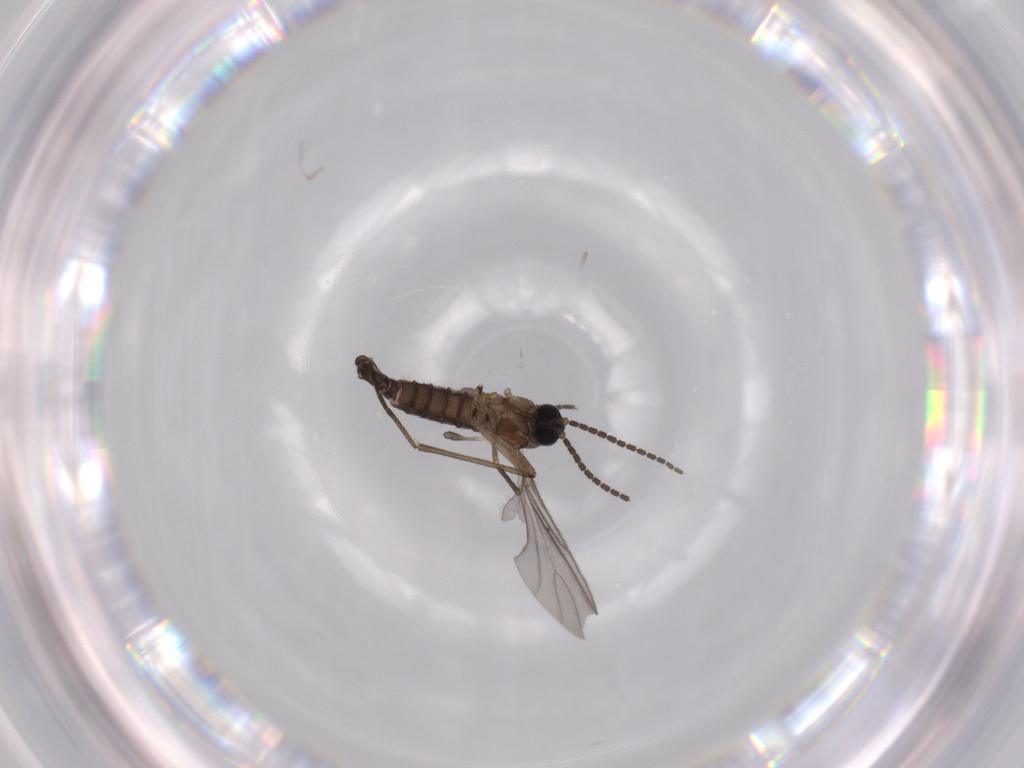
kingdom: Animalia
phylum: Arthropoda
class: Insecta
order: Diptera
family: Sciaridae
